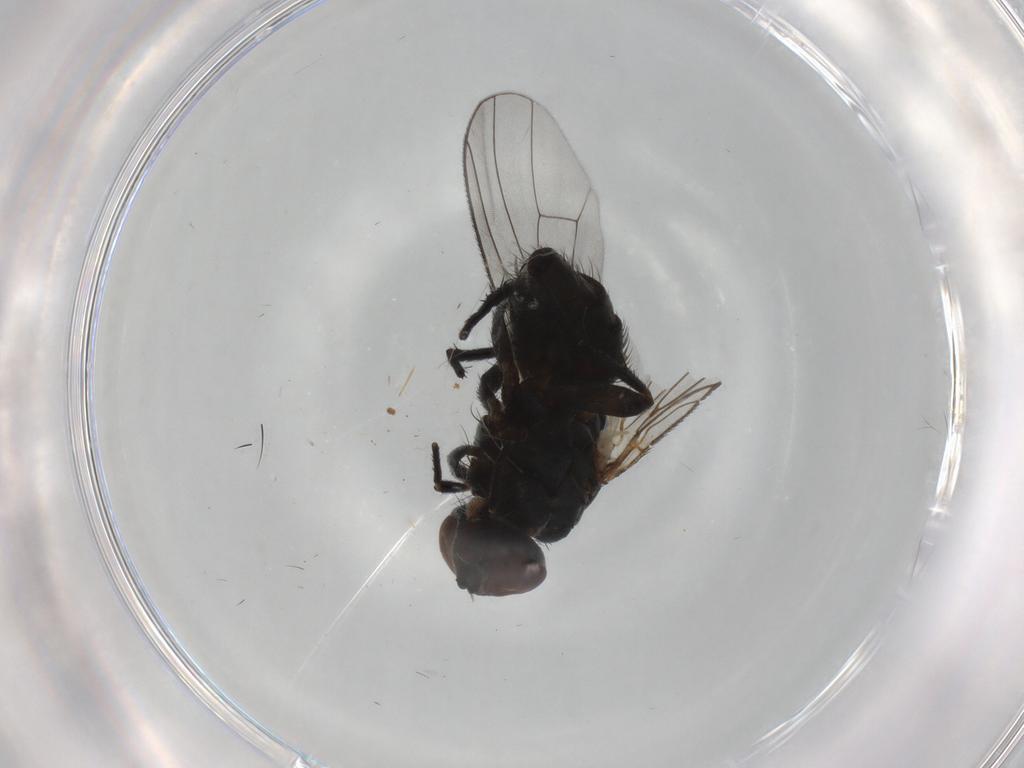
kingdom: Animalia
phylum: Arthropoda
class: Insecta
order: Diptera
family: Muscidae
